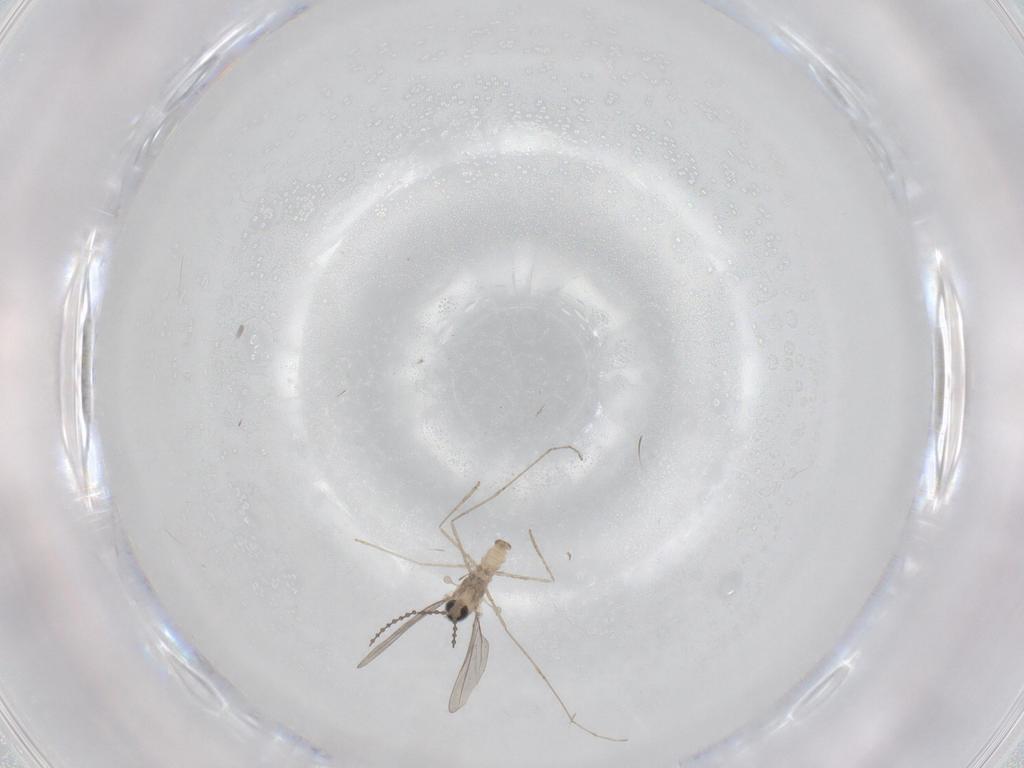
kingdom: Animalia
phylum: Arthropoda
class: Insecta
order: Diptera
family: Cecidomyiidae
